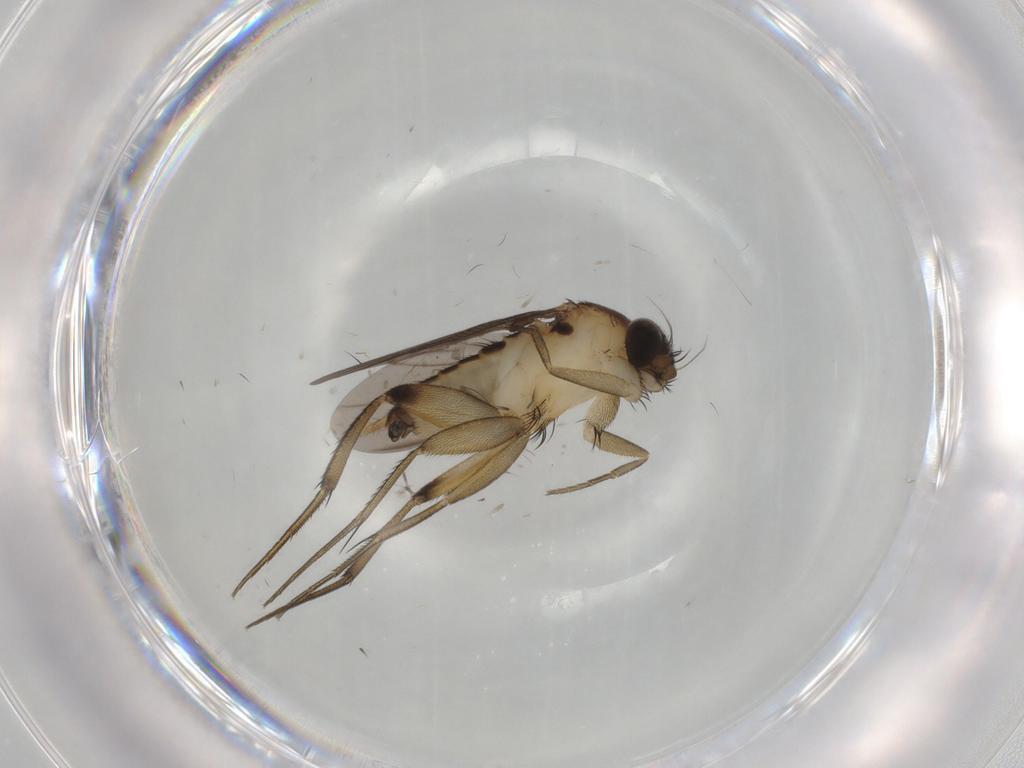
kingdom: Animalia
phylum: Arthropoda
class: Insecta
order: Diptera
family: Phoridae
